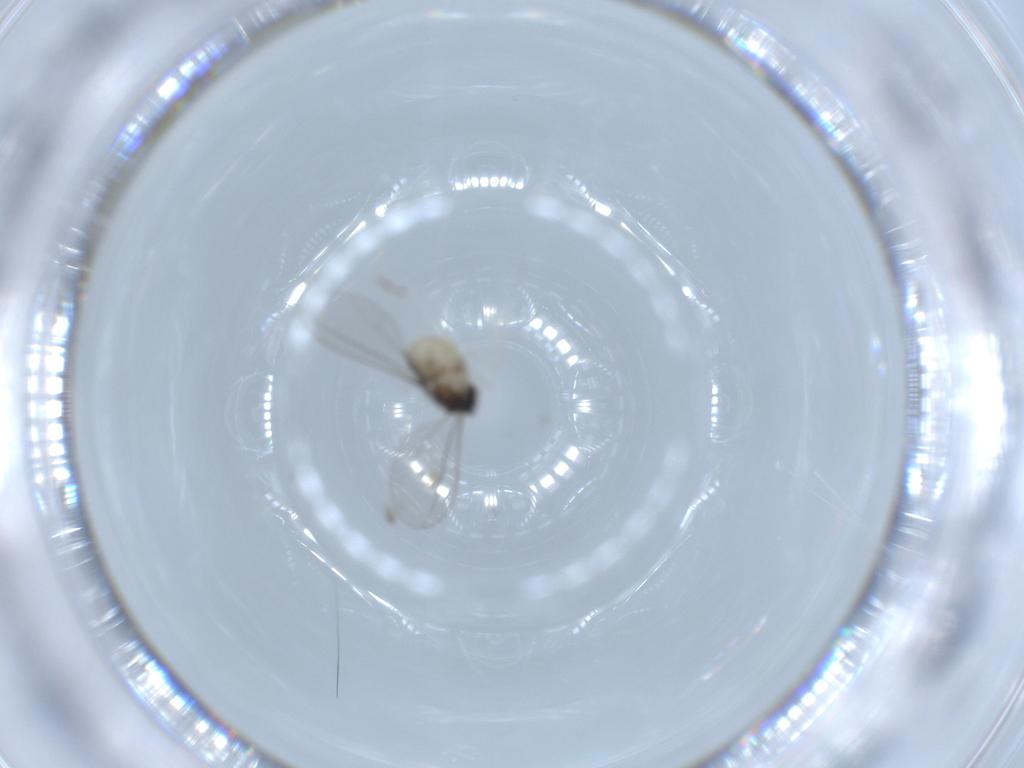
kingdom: Animalia
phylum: Arthropoda
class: Insecta
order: Diptera
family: Cecidomyiidae
